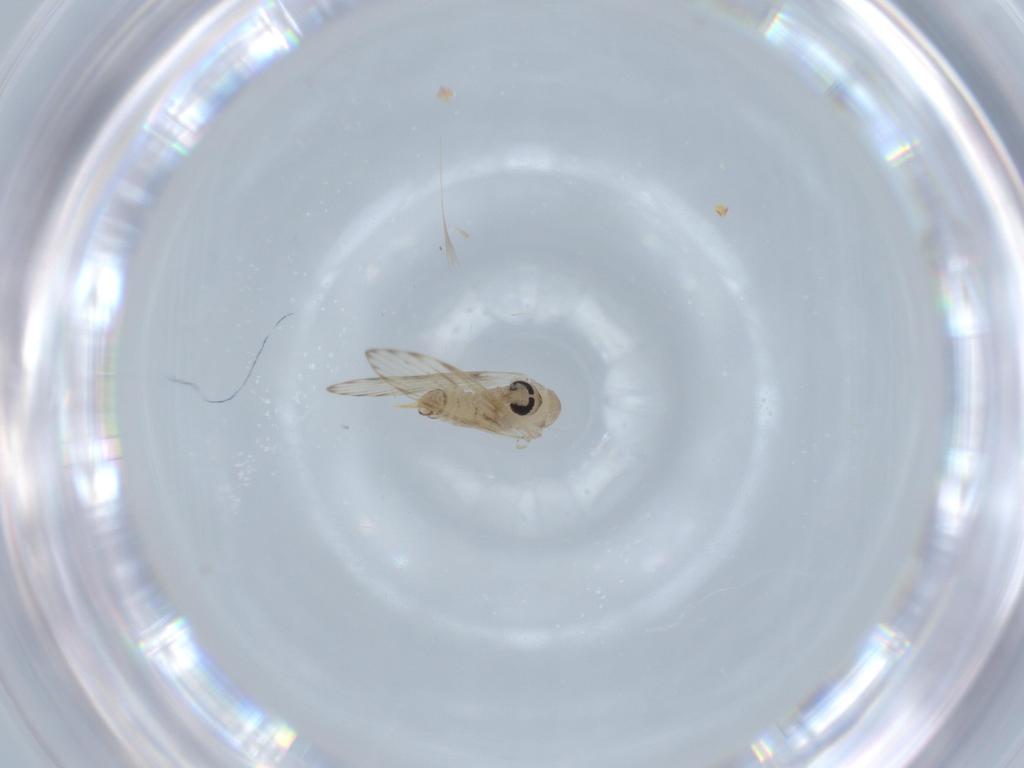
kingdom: Animalia
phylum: Arthropoda
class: Insecta
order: Diptera
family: Psychodidae
